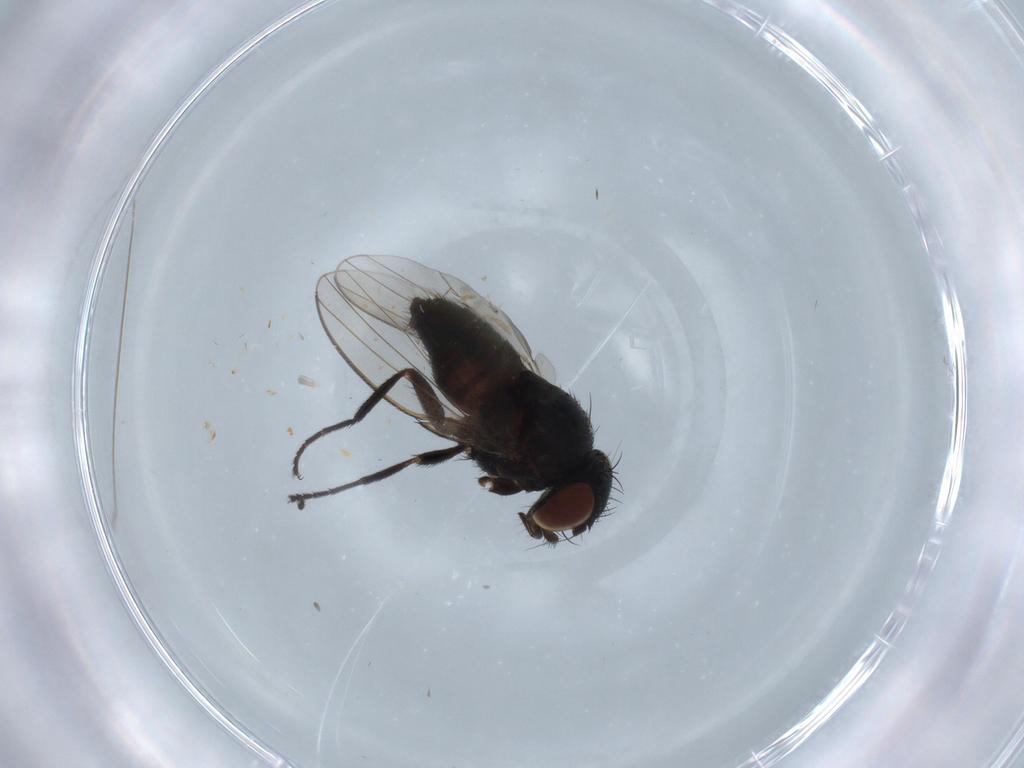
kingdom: Animalia
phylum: Arthropoda
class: Insecta
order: Diptera
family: Milichiidae
